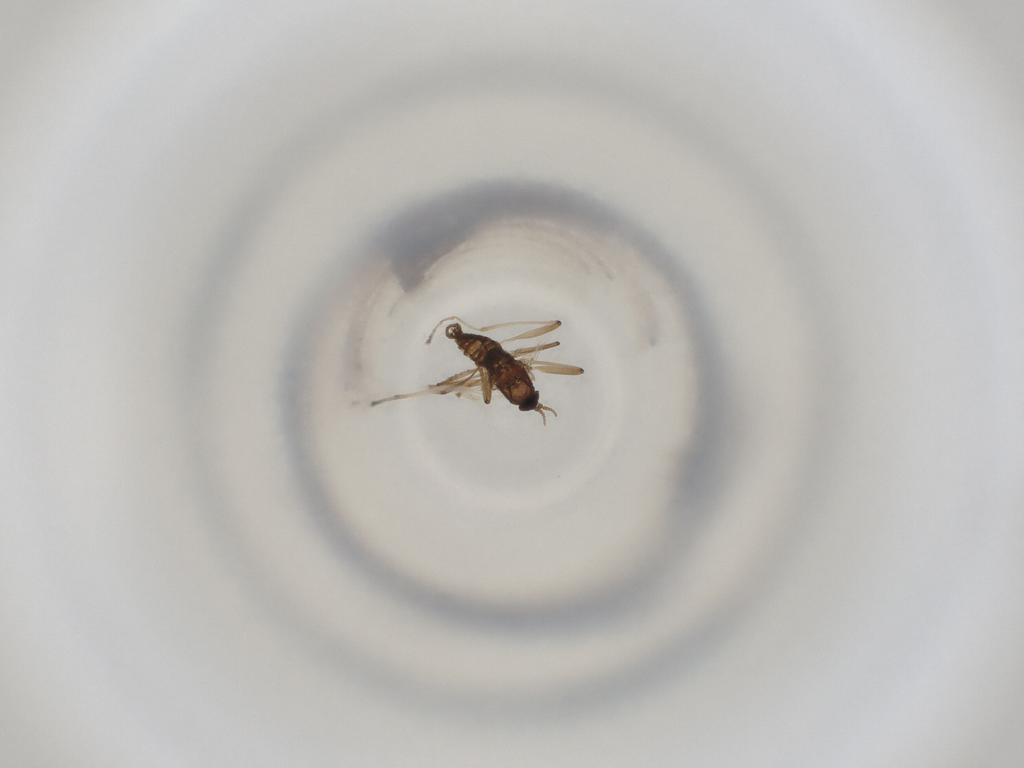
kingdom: Animalia
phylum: Arthropoda
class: Insecta
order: Diptera
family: Cecidomyiidae
